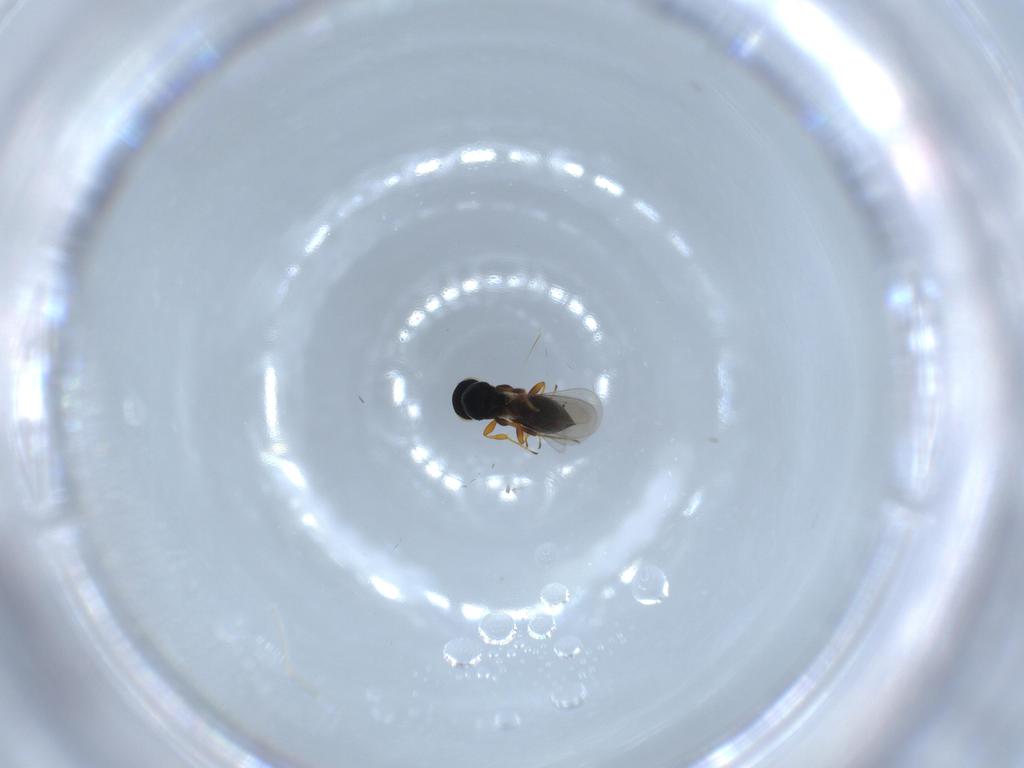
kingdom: Animalia
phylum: Arthropoda
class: Insecta
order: Hymenoptera
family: Platygastridae
